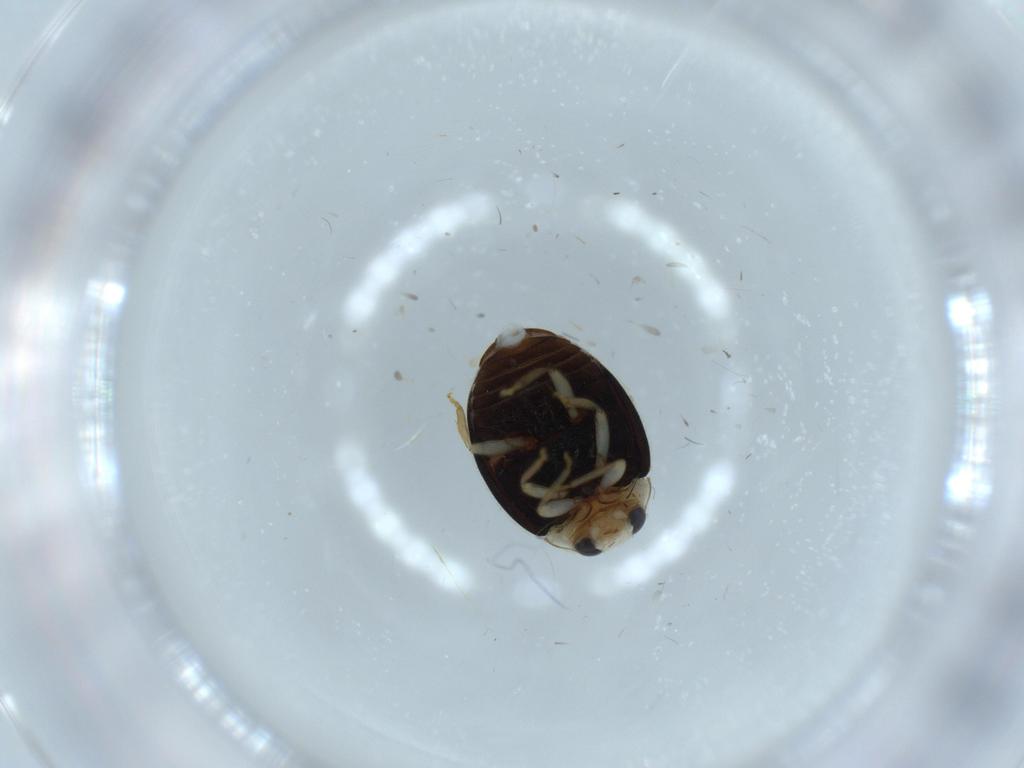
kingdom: Animalia
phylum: Arthropoda
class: Insecta
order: Coleoptera
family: Coccinellidae
